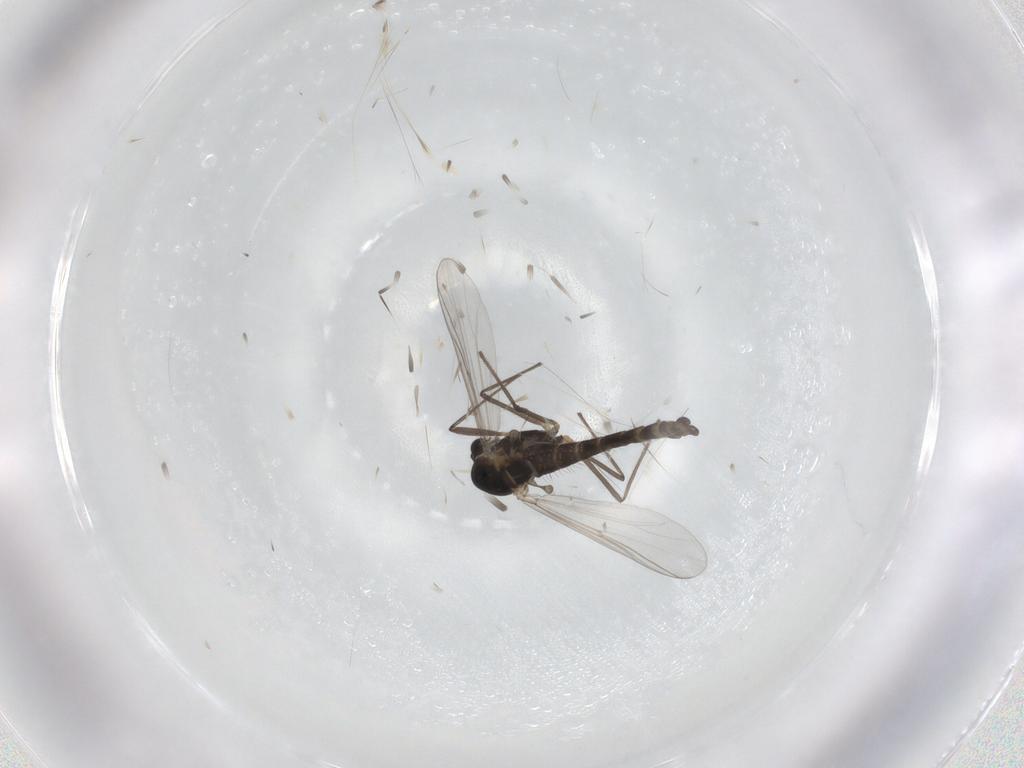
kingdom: Animalia
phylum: Arthropoda
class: Insecta
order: Diptera
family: Chironomidae
